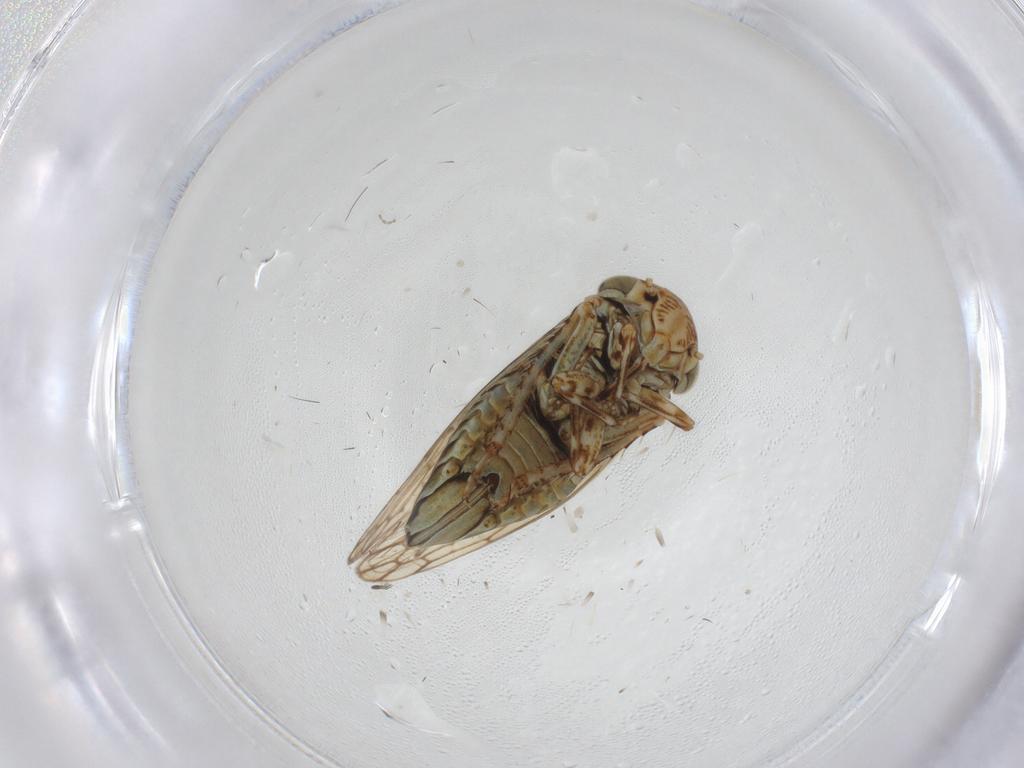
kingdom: Animalia
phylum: Arthropoda
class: Insecta
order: Hemiptera
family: Cicadellidae
